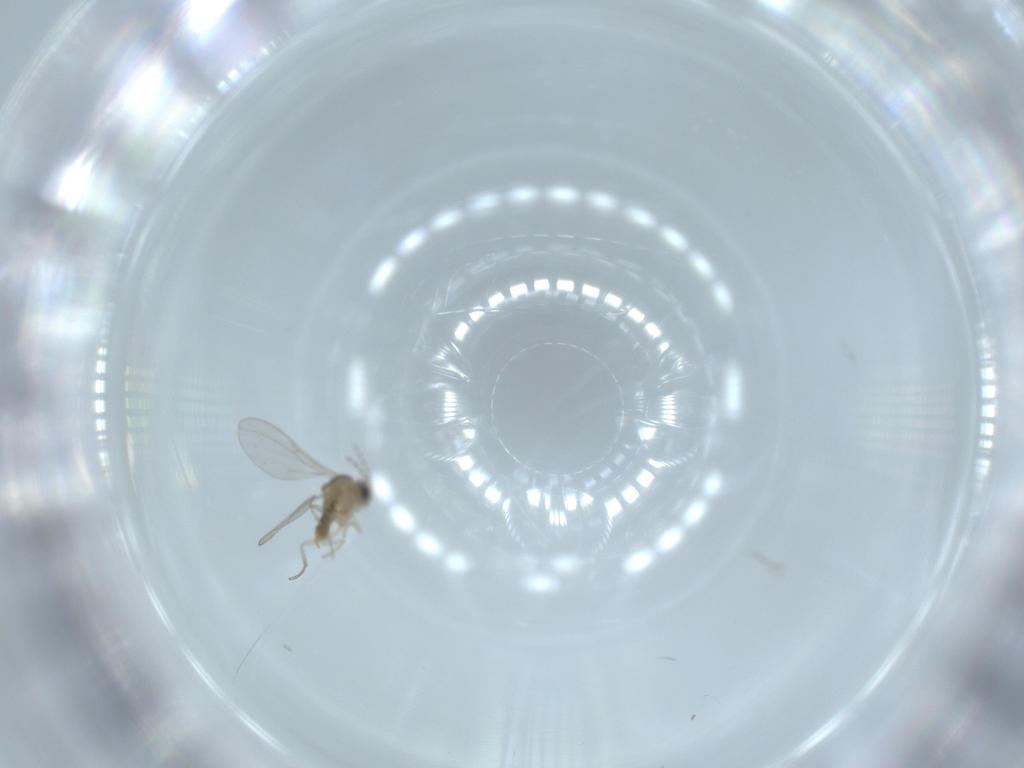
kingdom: Animalia
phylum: Arthropoda
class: Insecta
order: Diptera
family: Cecidomyiidae
